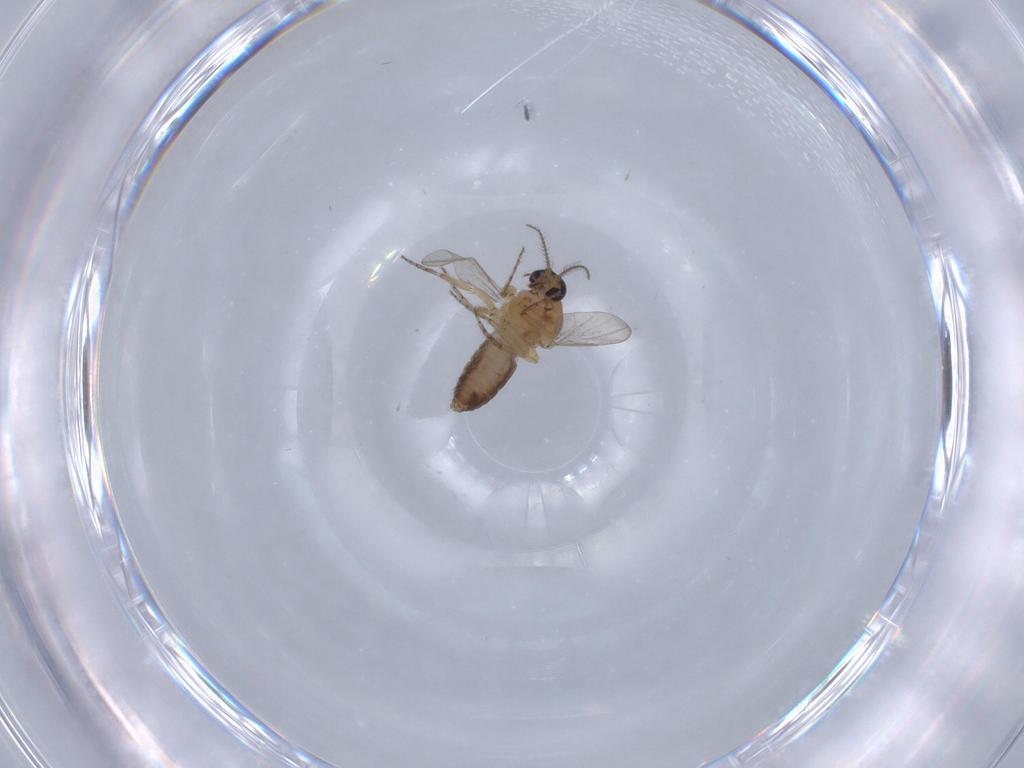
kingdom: Animalia
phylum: Arthropoda
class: Insecta
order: Diptera
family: Ceratopogonidae
